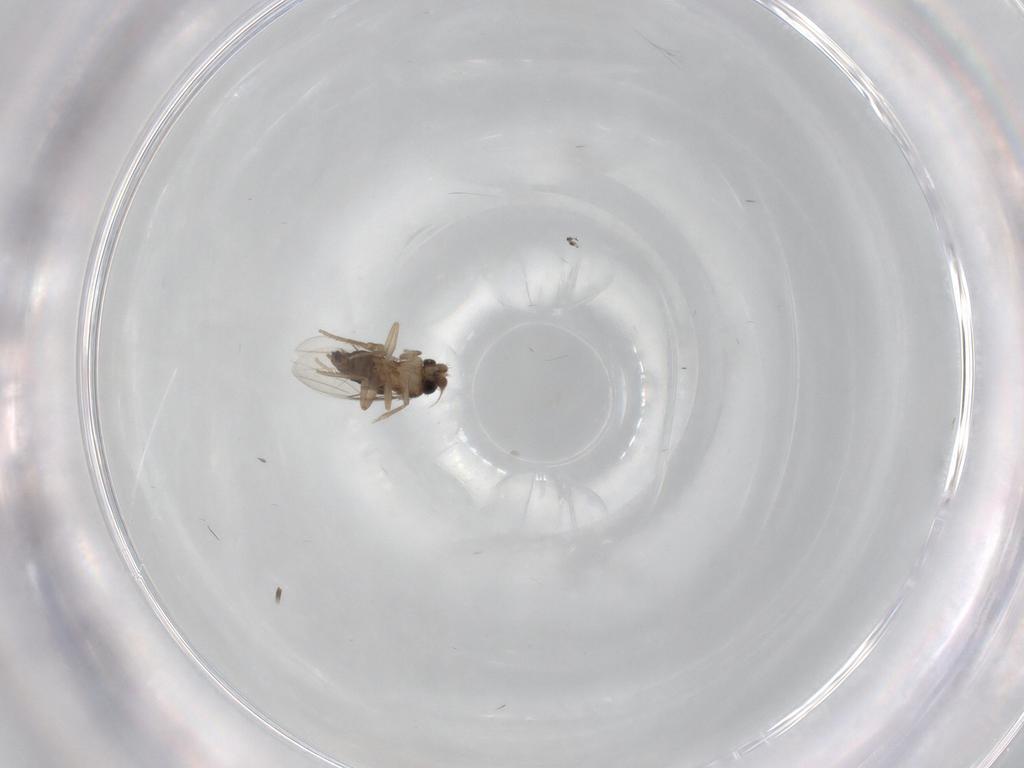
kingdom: Animalia
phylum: Arthropoda
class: Insecta
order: Diptera
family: Phoridae
